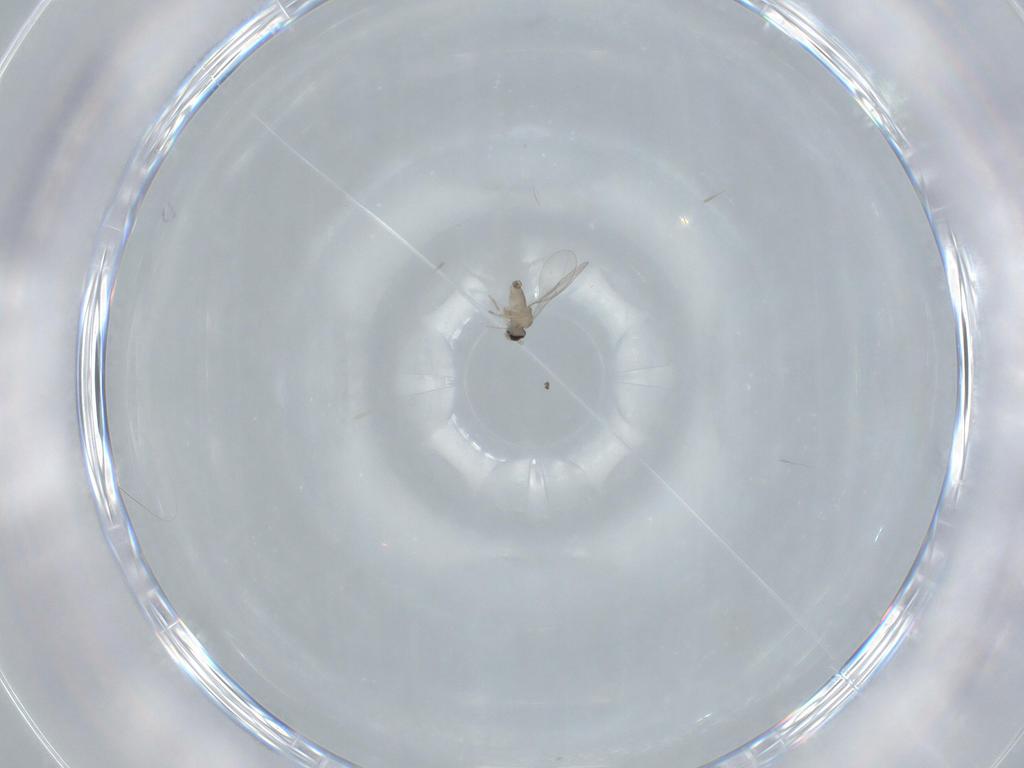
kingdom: Animalia
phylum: Arthropoda
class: Insecta
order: Diptera
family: Cecidomyiidae
